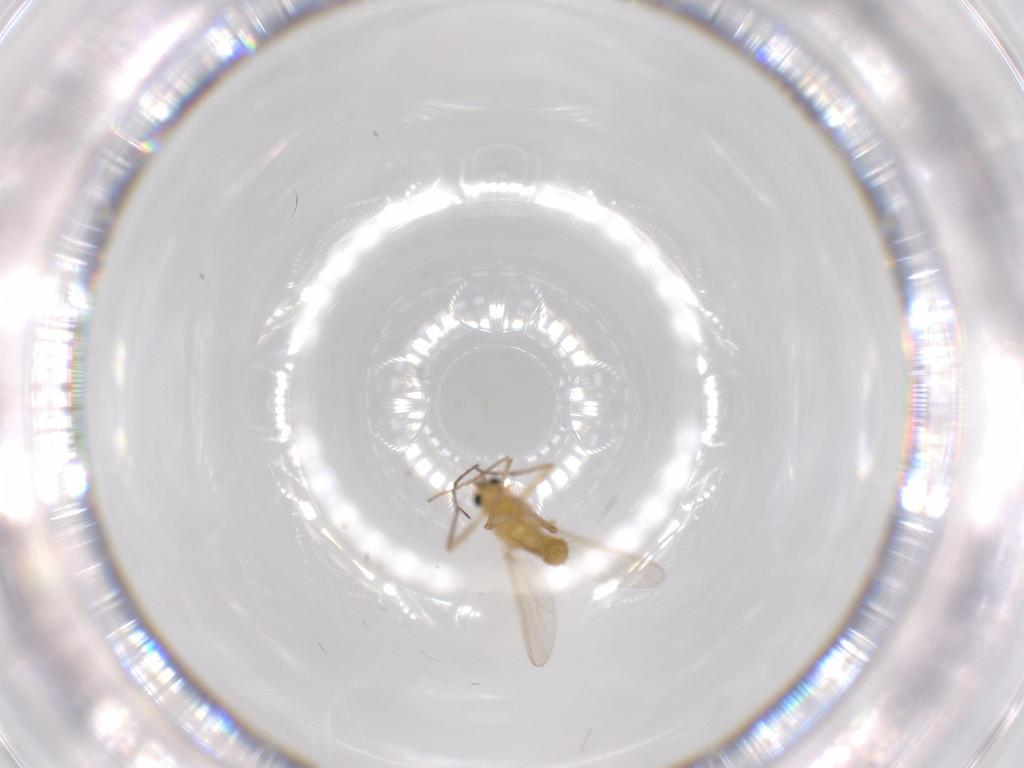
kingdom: Animalia
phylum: Arthropoda
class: Insecta
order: Diptera
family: Chironomidae
